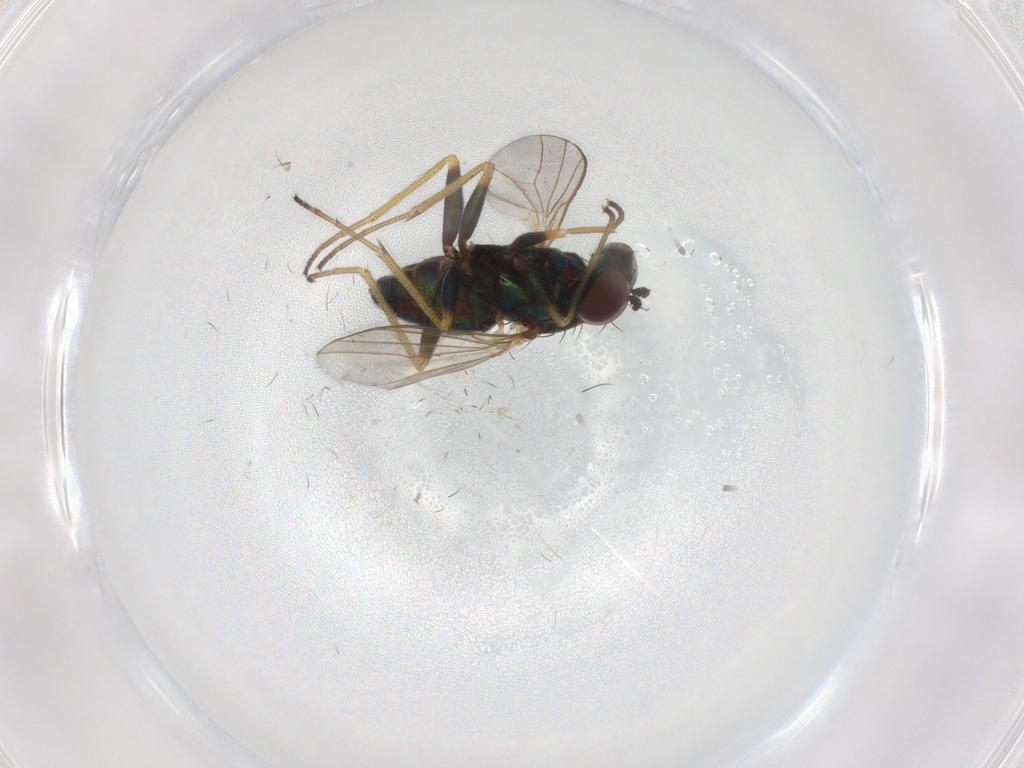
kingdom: Animalia
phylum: Arthropoda
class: Insecta
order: Diptera
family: Dolichopodidae
